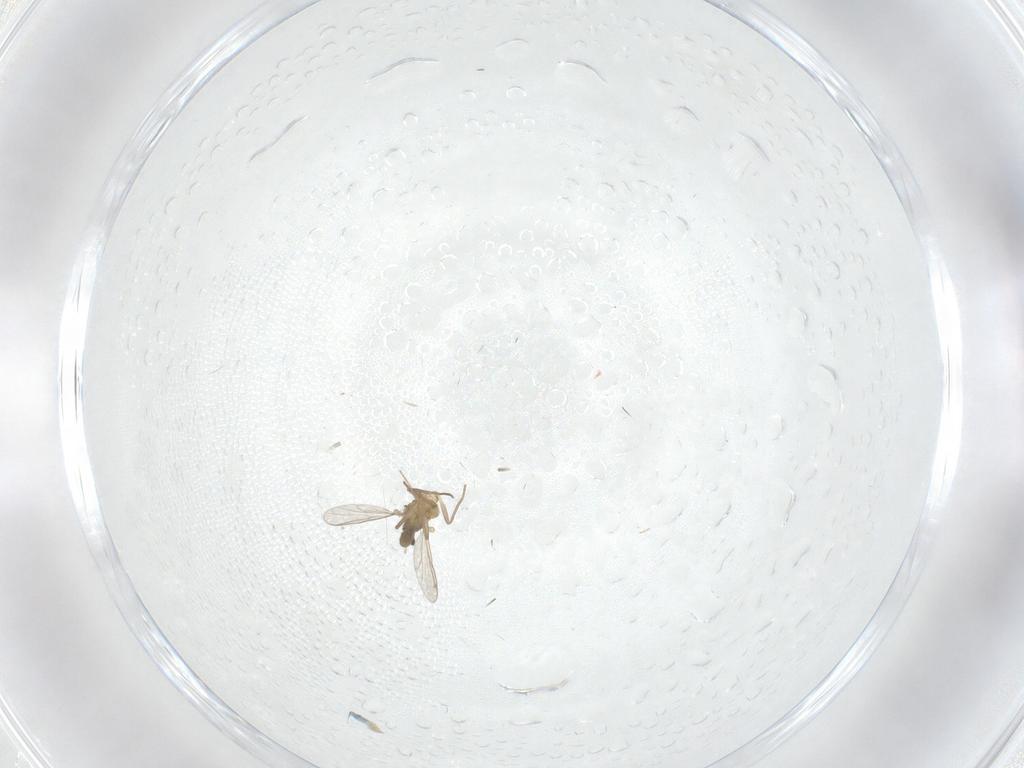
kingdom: Animalia
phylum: Arthropoda
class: Insecta
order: Diptera
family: Chironomidae
